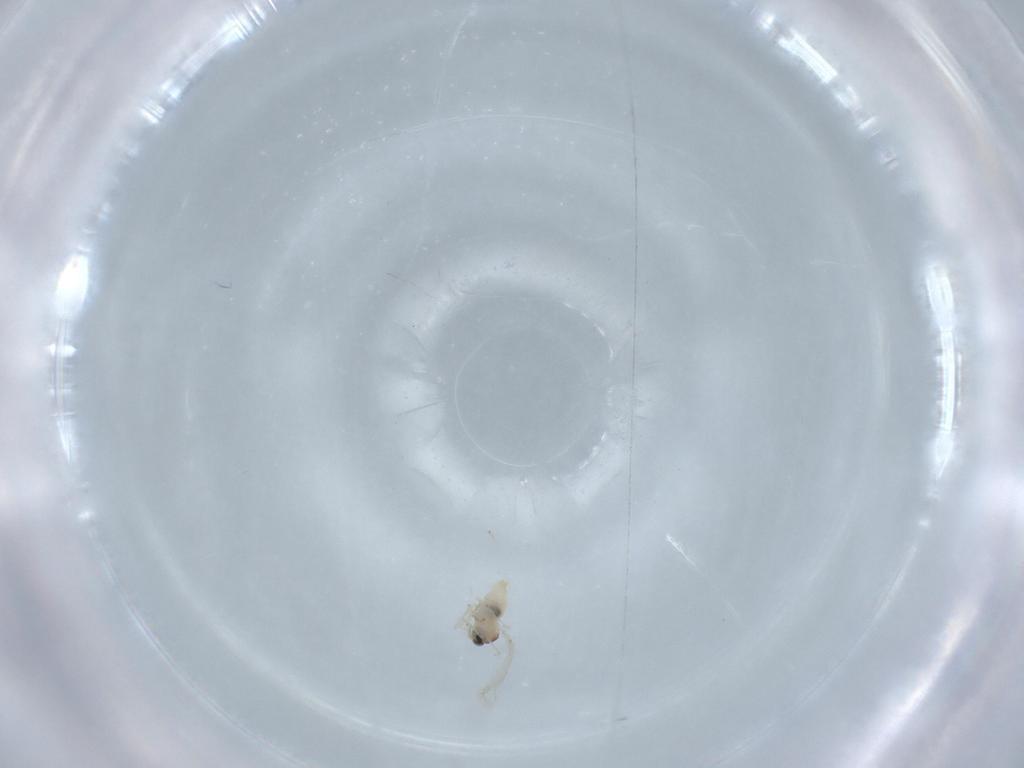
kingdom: Animalia
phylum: Arthropoda
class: Insecta
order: Diptera
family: Cecidomyiidae
